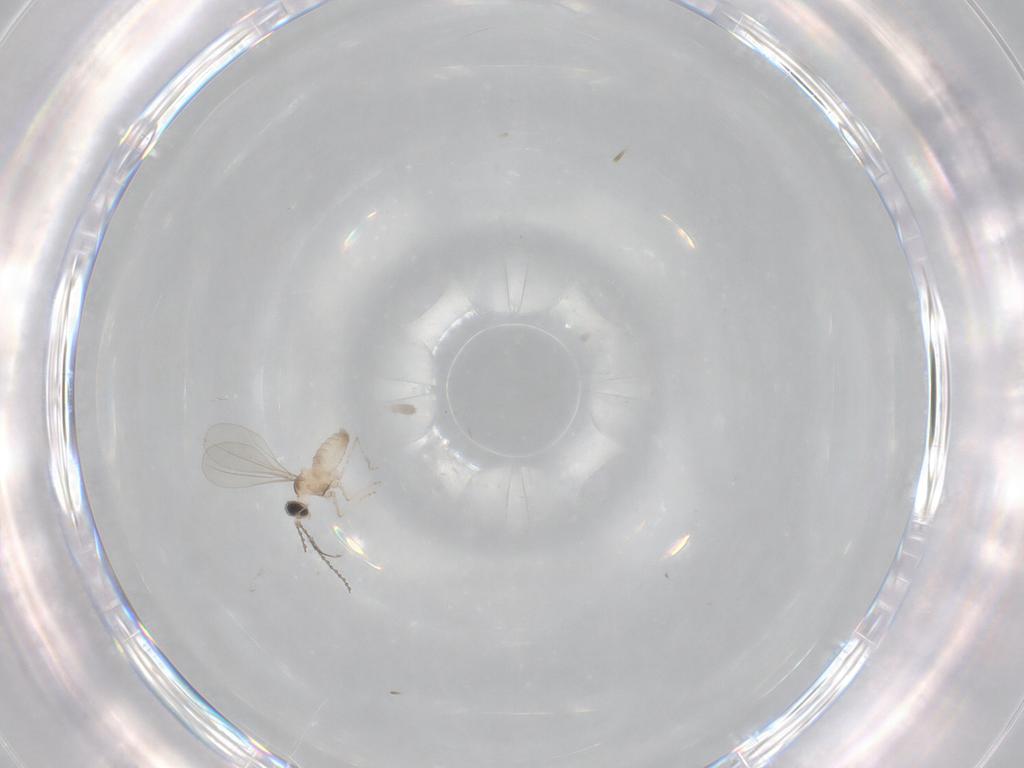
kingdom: Animalia
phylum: Arthropoda
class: Insecta
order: Diptera
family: Cecidomyiidae
